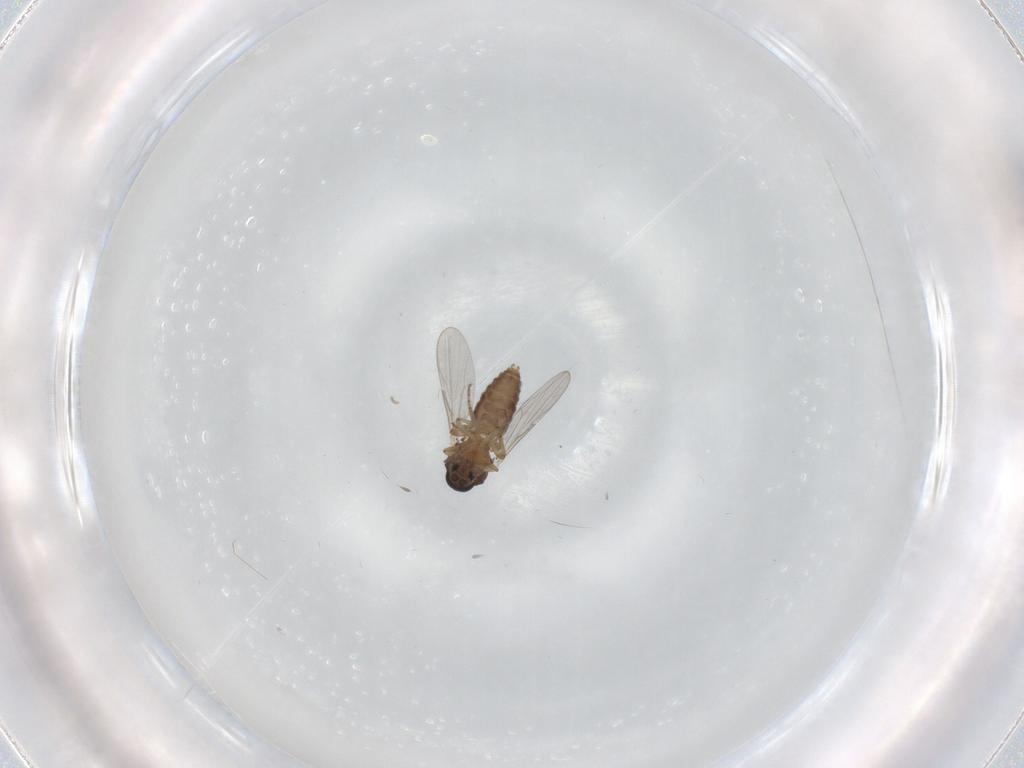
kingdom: Animalia
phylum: Arthropoda
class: Insecta
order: Diptera
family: Ceratopogonidae
